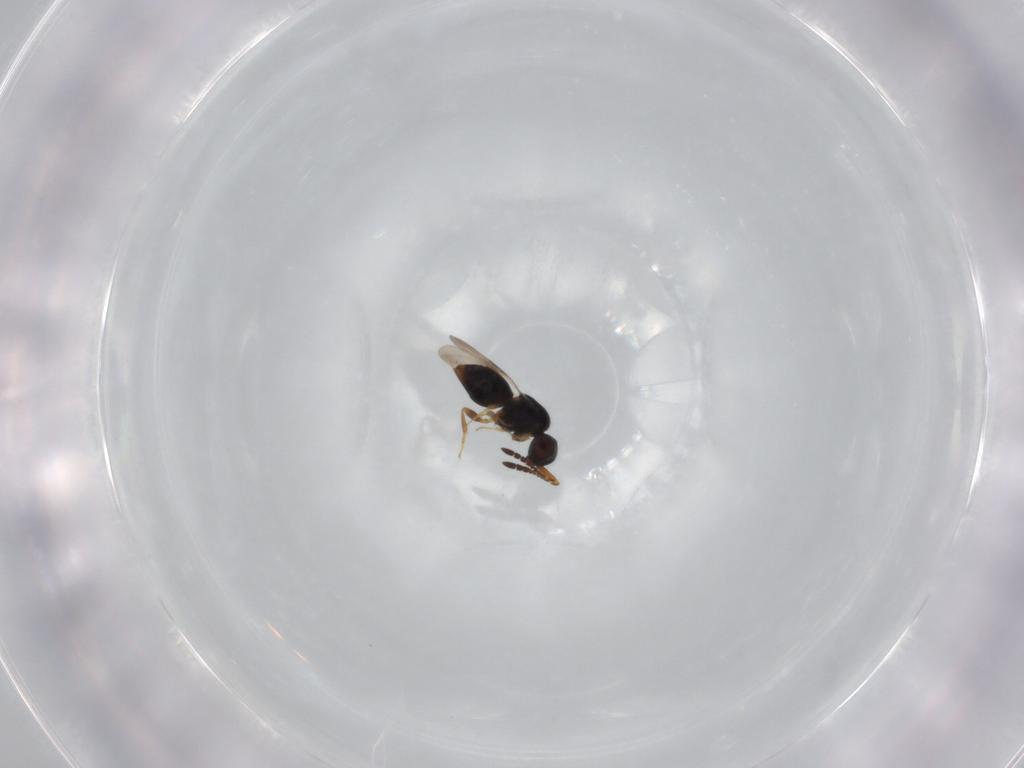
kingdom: Animalia
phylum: Arthropoda
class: Insecta
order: Hymenoptera
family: Braconidae
